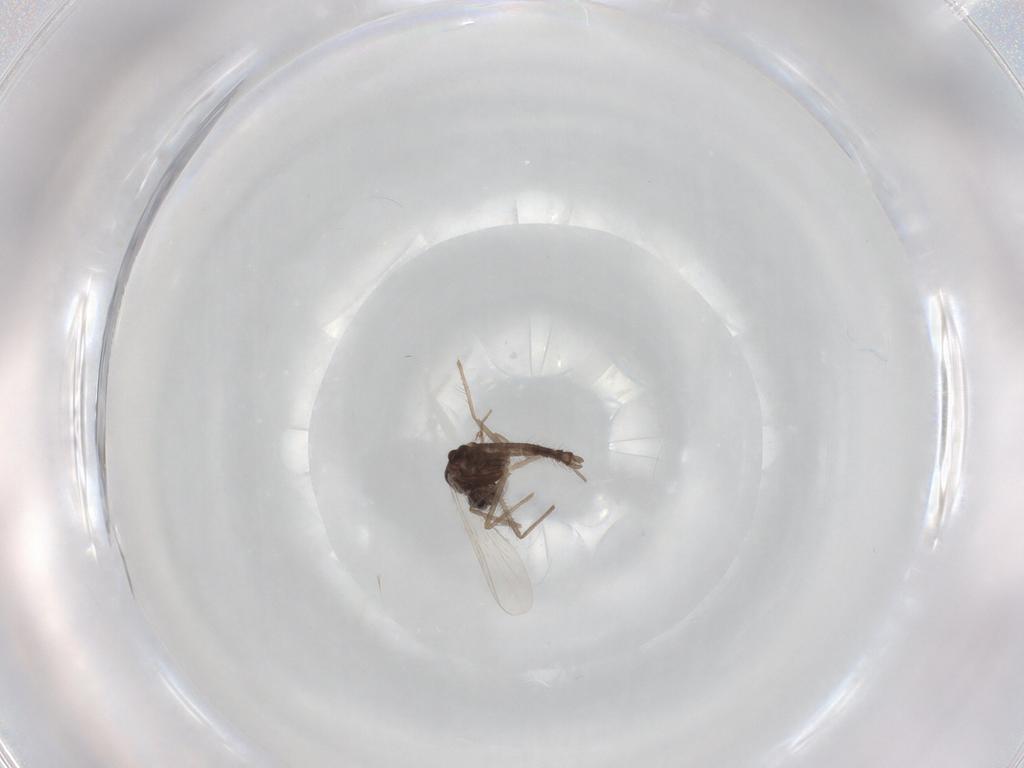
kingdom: Animalia
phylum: Arthropoda
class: Insecta
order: Diptera
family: Chironomidae
